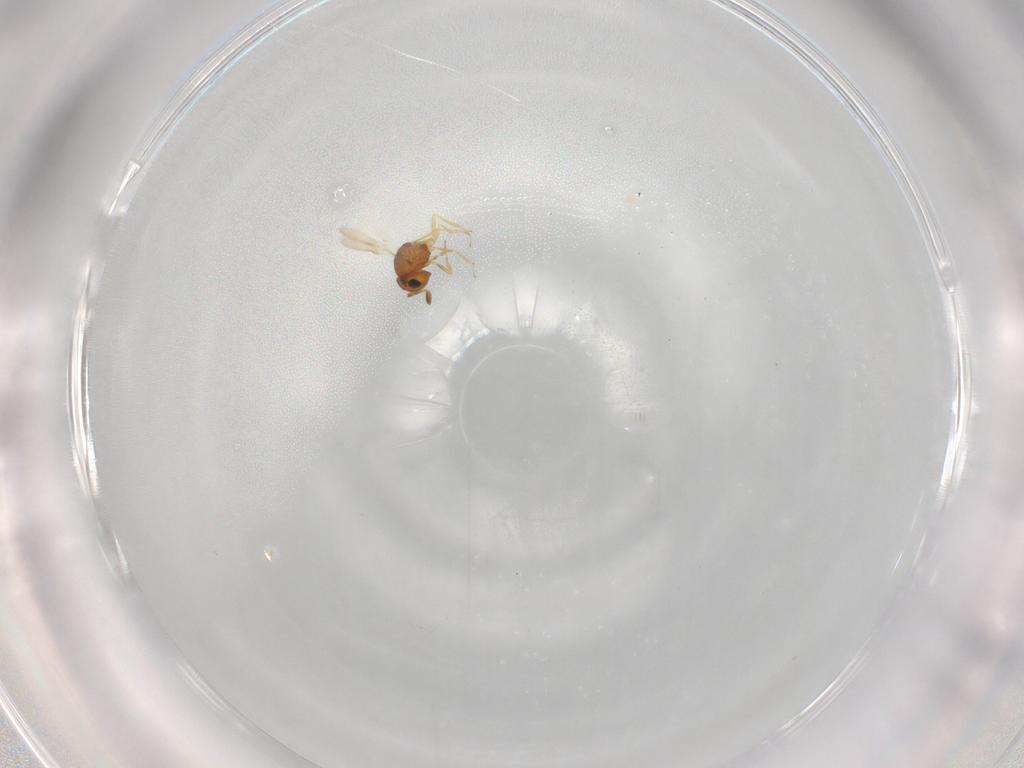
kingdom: Animalia
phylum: Arthropoda
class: Insecta
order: Hymenoptera
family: Scelionidae
